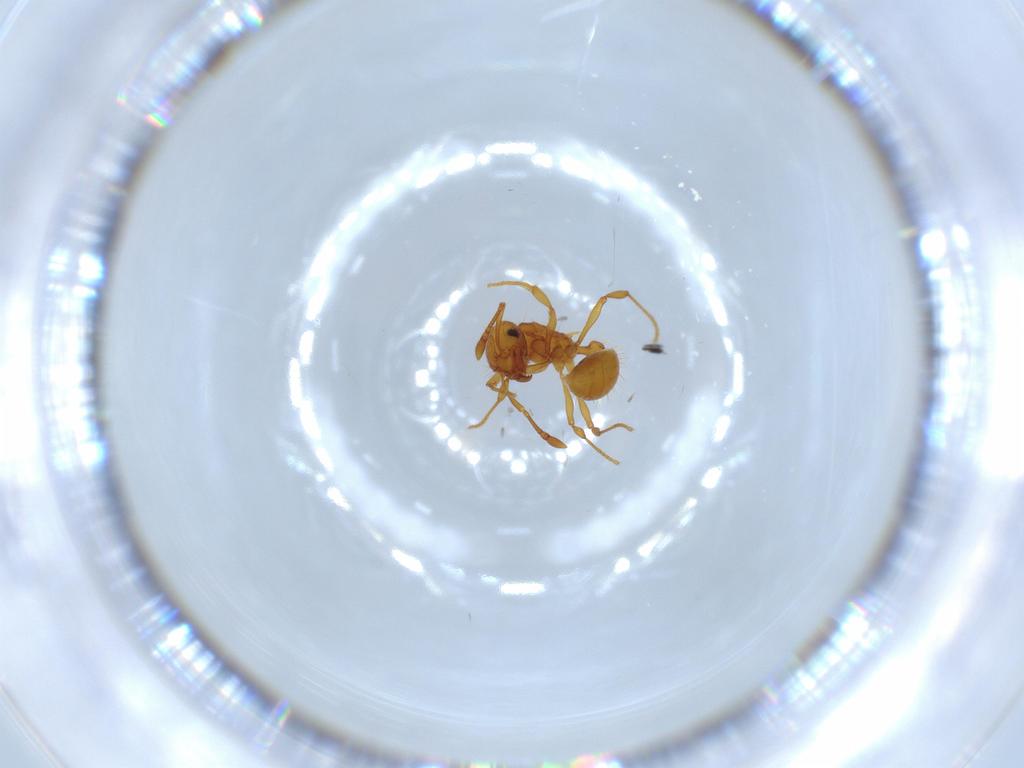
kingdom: Animalia
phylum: Arthropoda
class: Insecta
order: Hymenoptera
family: Formicidae
